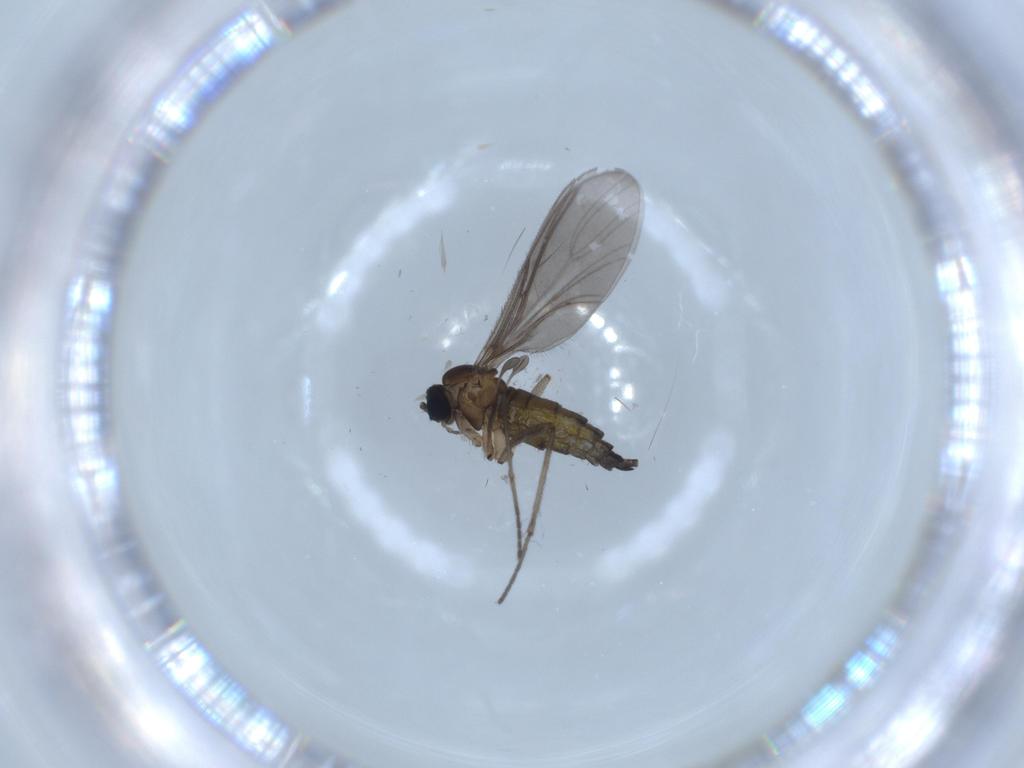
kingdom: Animalia
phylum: Arthropoda
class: Insecta
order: Diptera
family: Sciaridae
